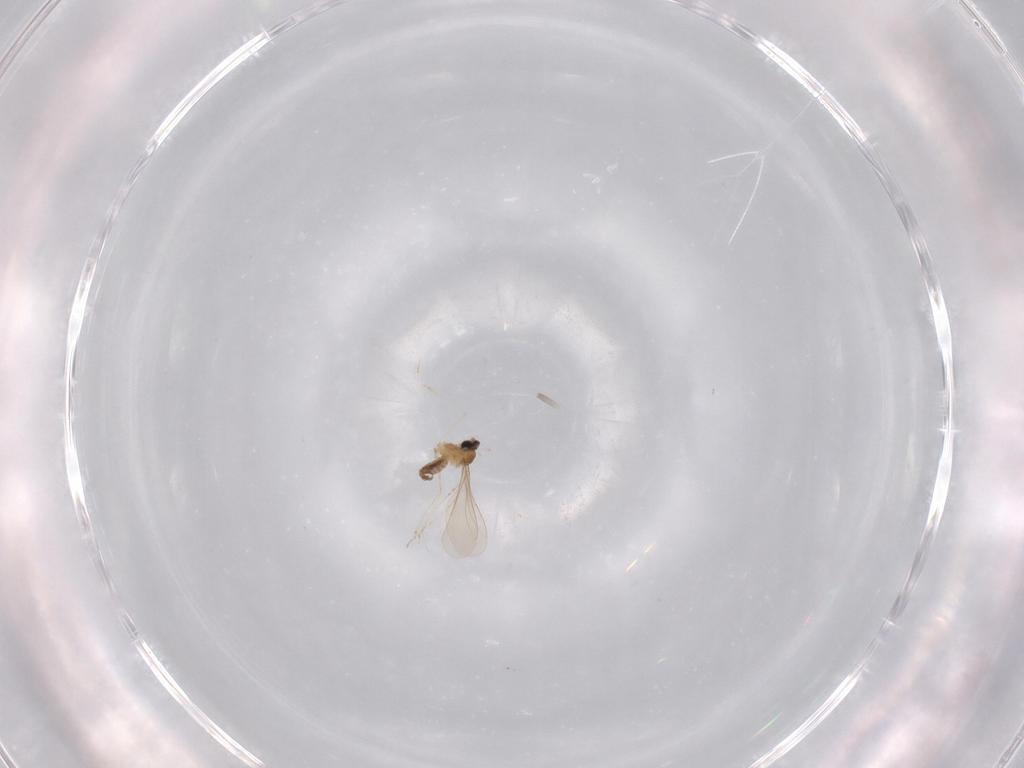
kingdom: Animalia
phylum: Arthropoda
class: Insecta
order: Diptera
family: Cecidomyiidae
